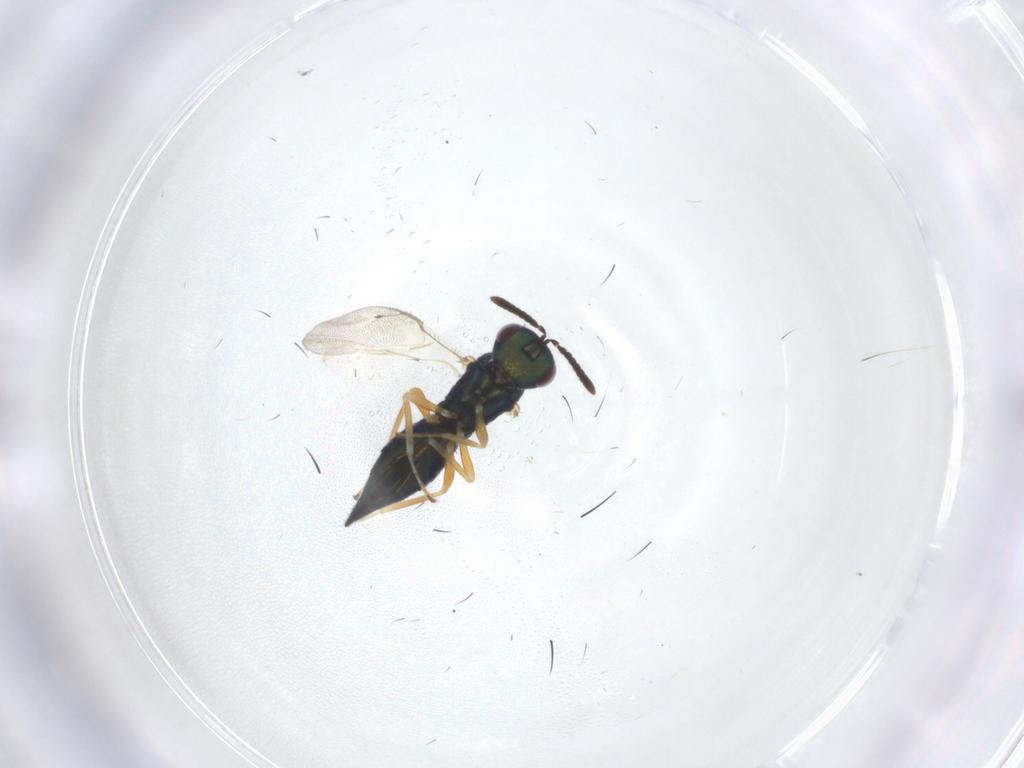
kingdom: Animalia
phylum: Arthropoda
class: Insecta
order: Hymenoptera
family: Pteromalidae
